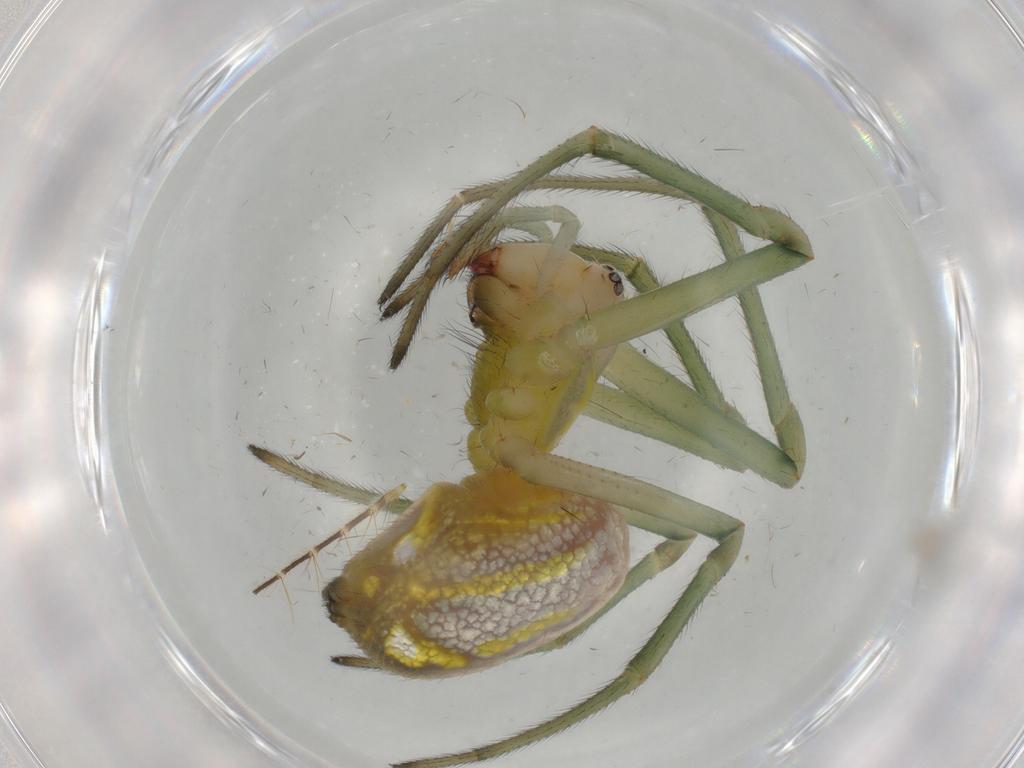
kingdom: Animalia
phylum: Arthropoda
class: Arachnida
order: Araneae
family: Tetragnathidae
